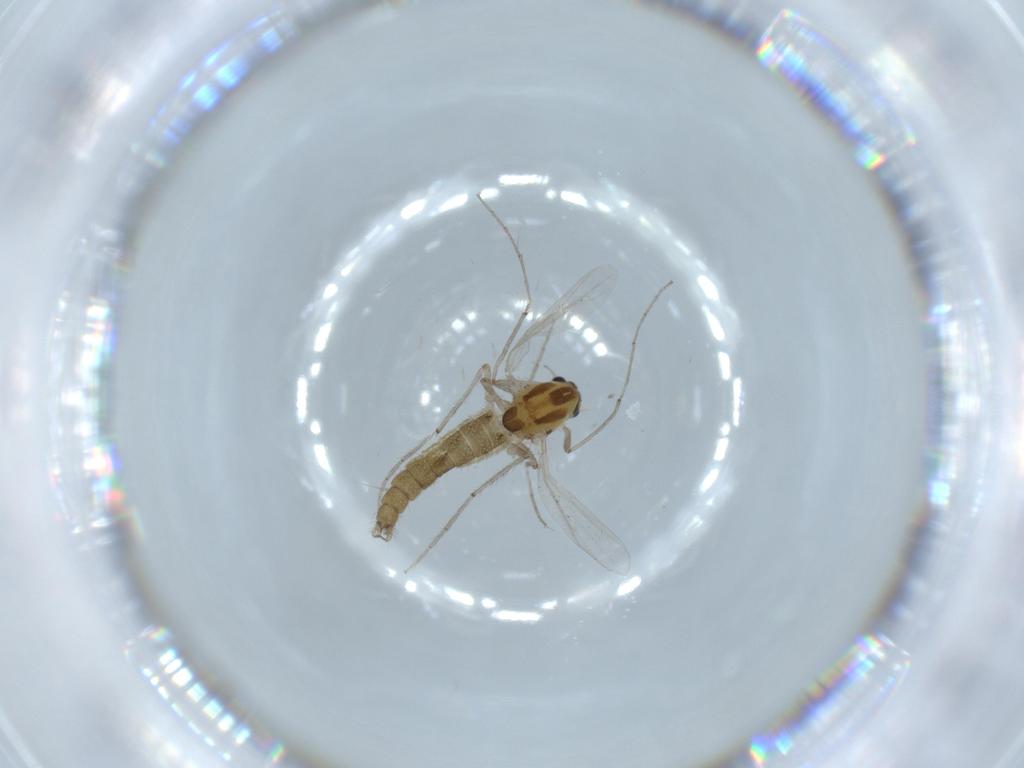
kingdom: Animalia
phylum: Arthropoda
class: Insecta
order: Diptera
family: Chironomidae
